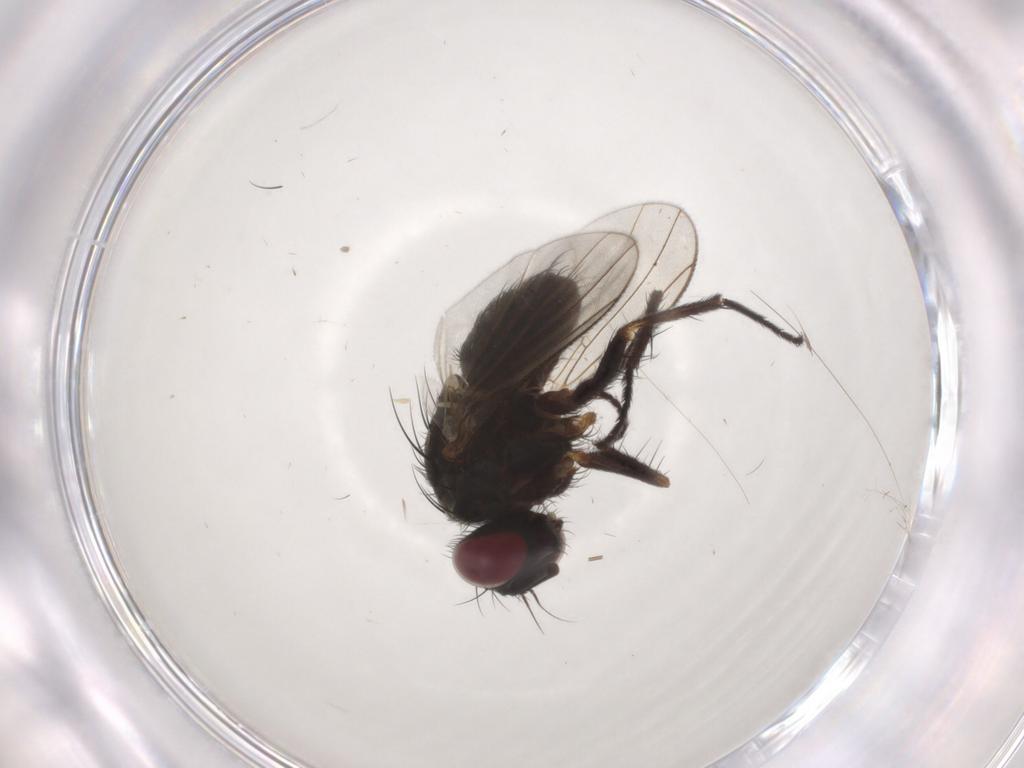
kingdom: Animalia
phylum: Arthropoda
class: Insecta
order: Diptera
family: Muscidae
